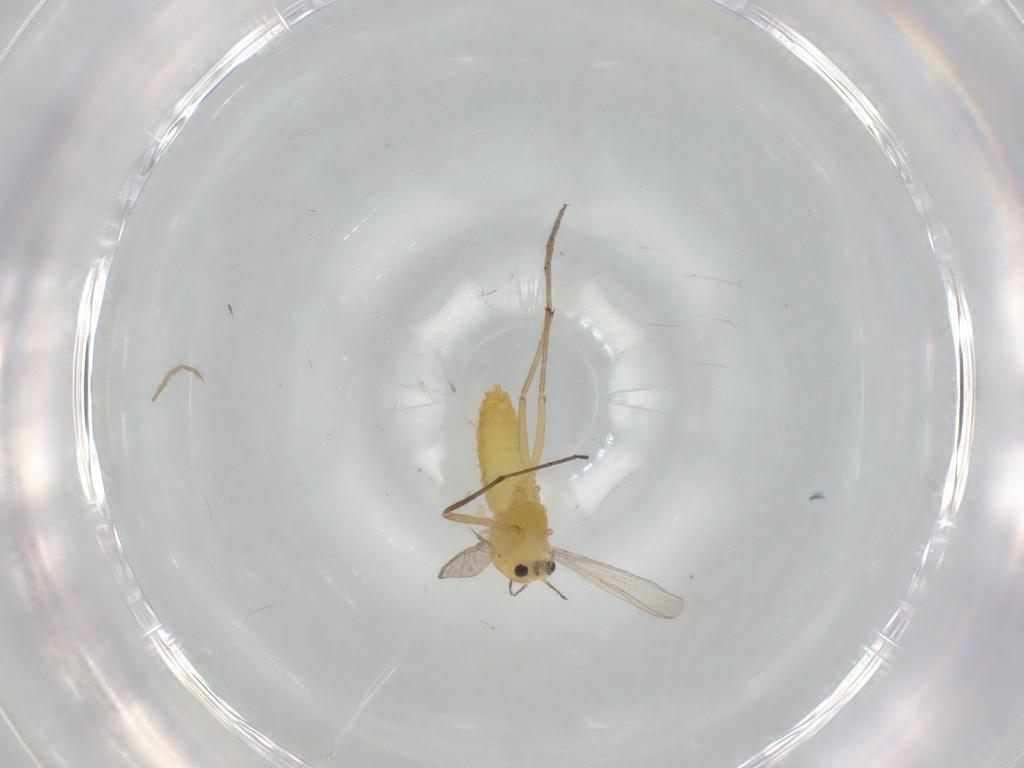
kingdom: Animalia
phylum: Arthropoda
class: Insecta
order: Diptera
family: Chironomidae
